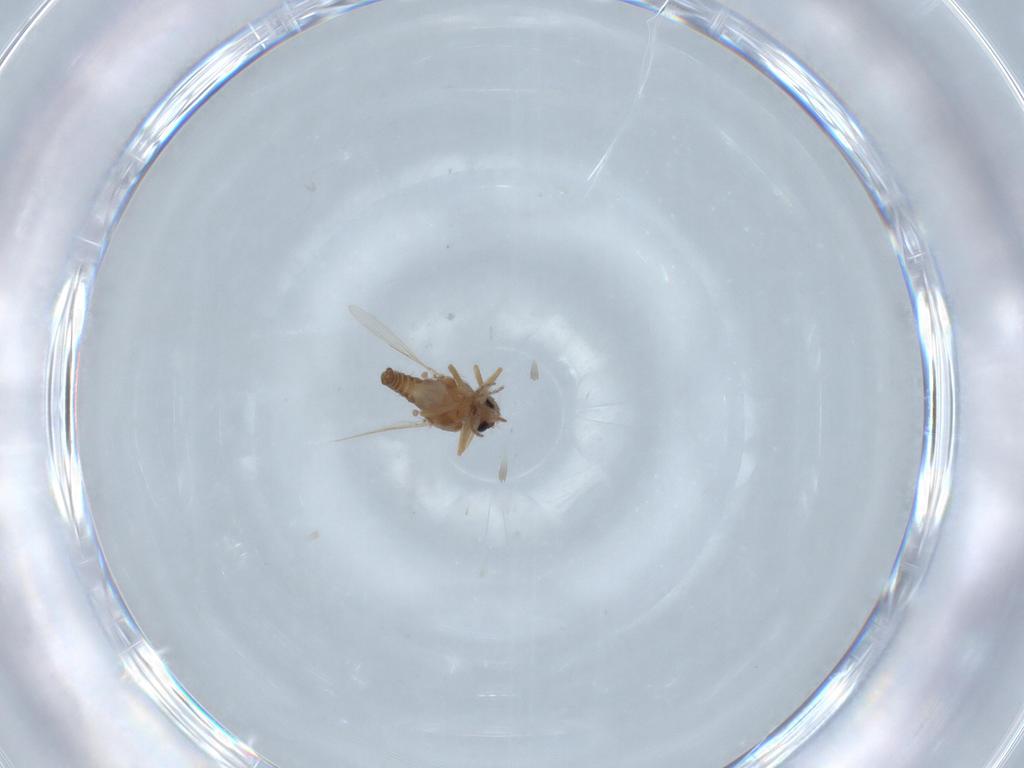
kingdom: Animalia
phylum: Arthropoda
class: Insecta
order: Diptera
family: Ceratopogonidae
